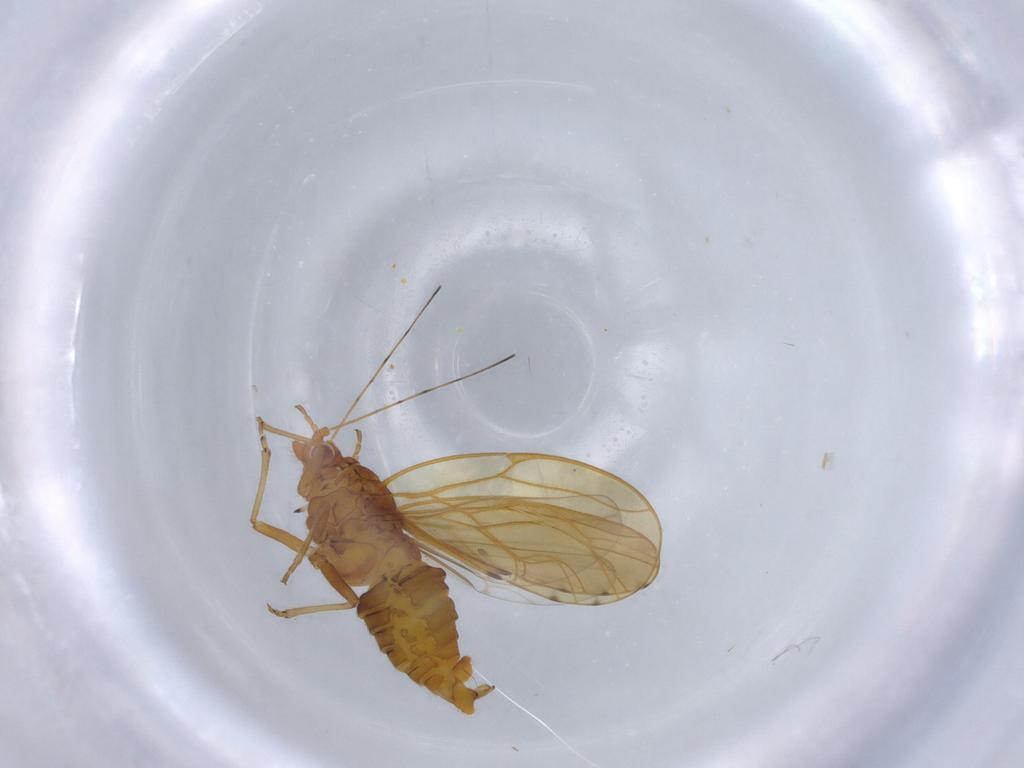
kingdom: Animalia
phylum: Arthropoda
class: Insecta
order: Hemiptera
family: Psylloidea_incertae_sedis
